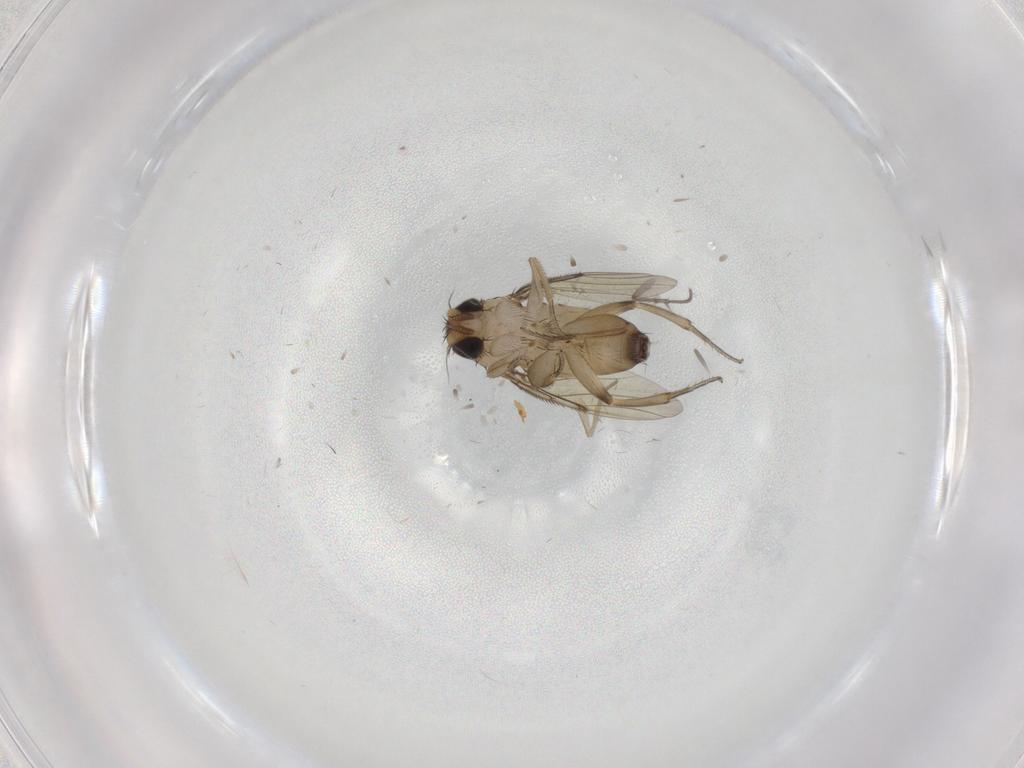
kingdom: Animalia
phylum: Arthropoda
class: Insecta
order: Diptera
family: Phoridae
